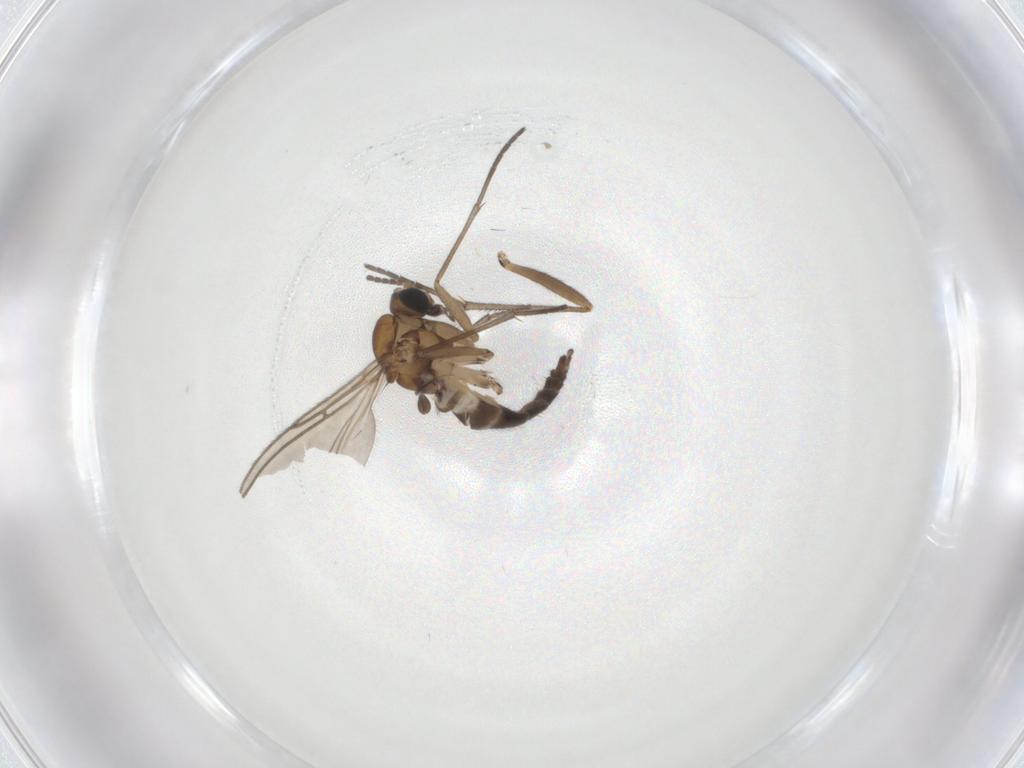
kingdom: Animalia
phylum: Arthropoda
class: Insecta
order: Diptera
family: Sciaridae
